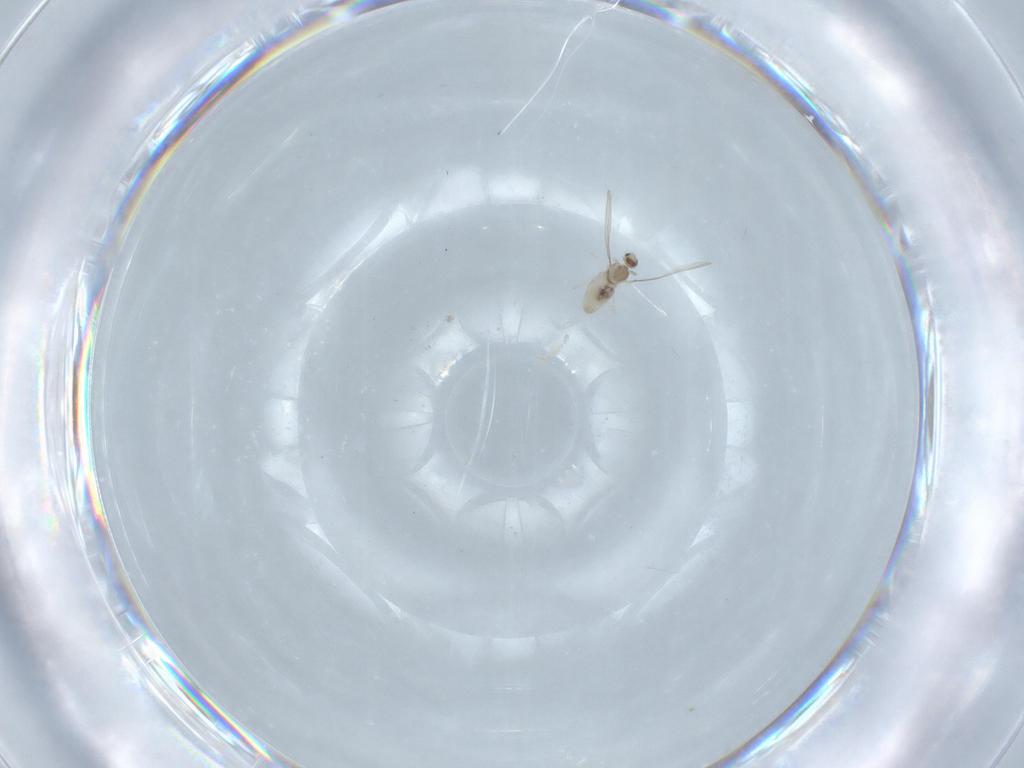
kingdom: Animalia
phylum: Arthropoda
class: Insecta
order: Diptera
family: Cecidomyiidae
